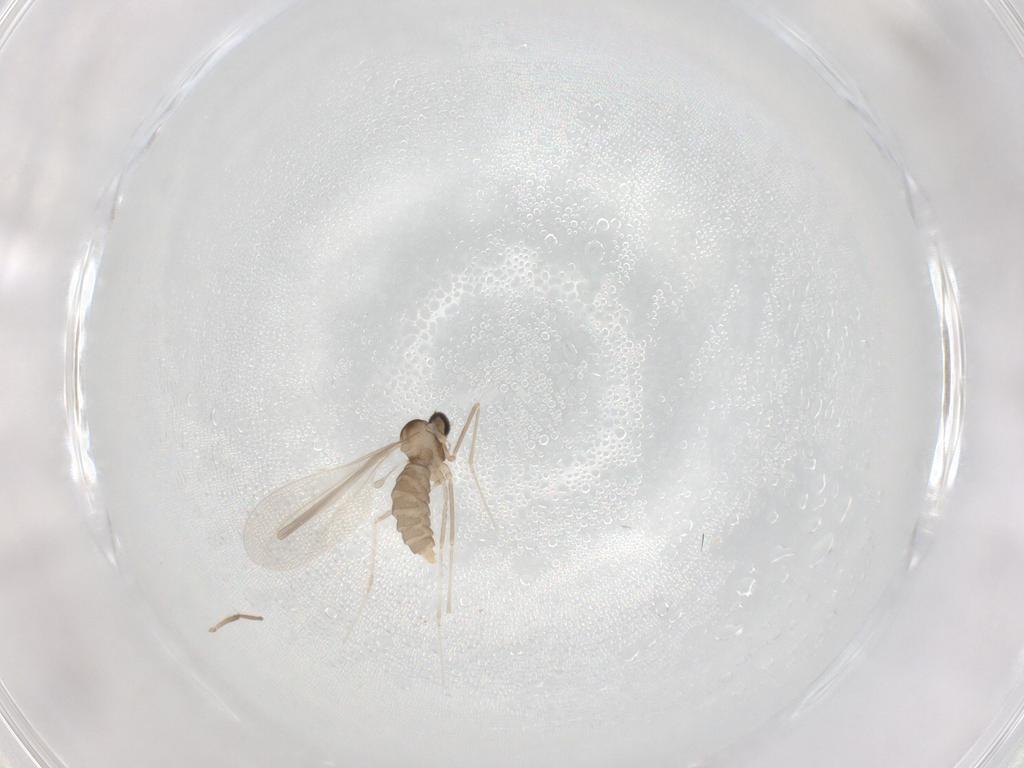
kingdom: Animalia
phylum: Arthropoda
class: Insecta
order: Diptera
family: Cecidomyiidae
